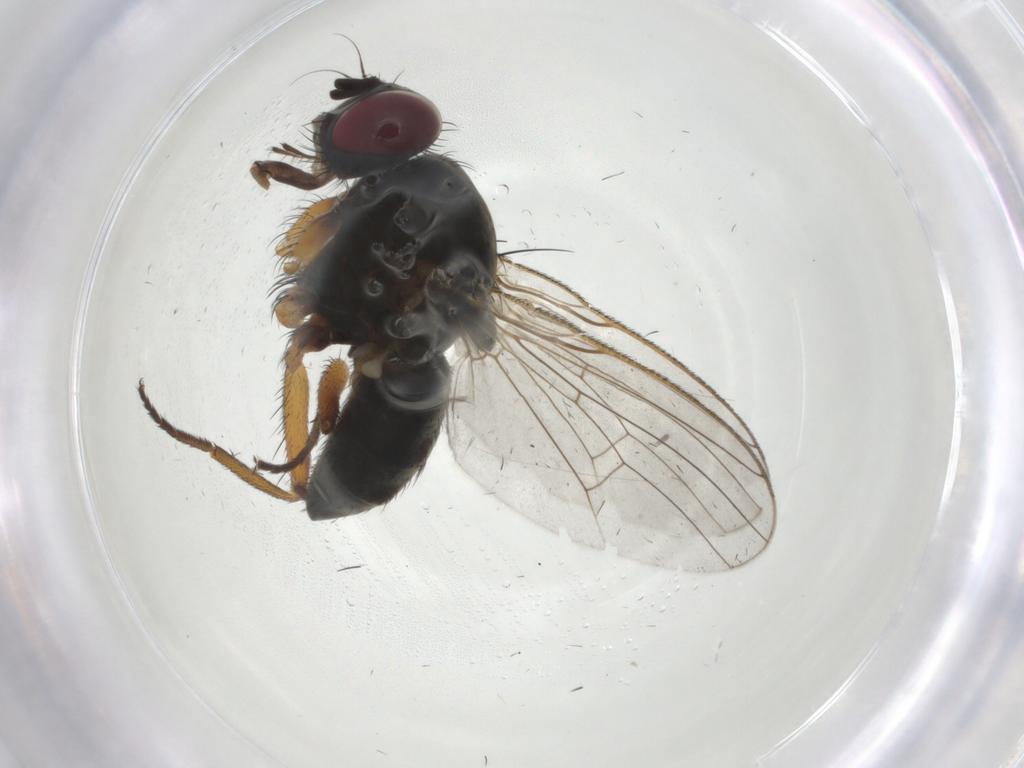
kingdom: Animalia
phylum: Arthropoda
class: Insecta
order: Diptera
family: Muscidae
